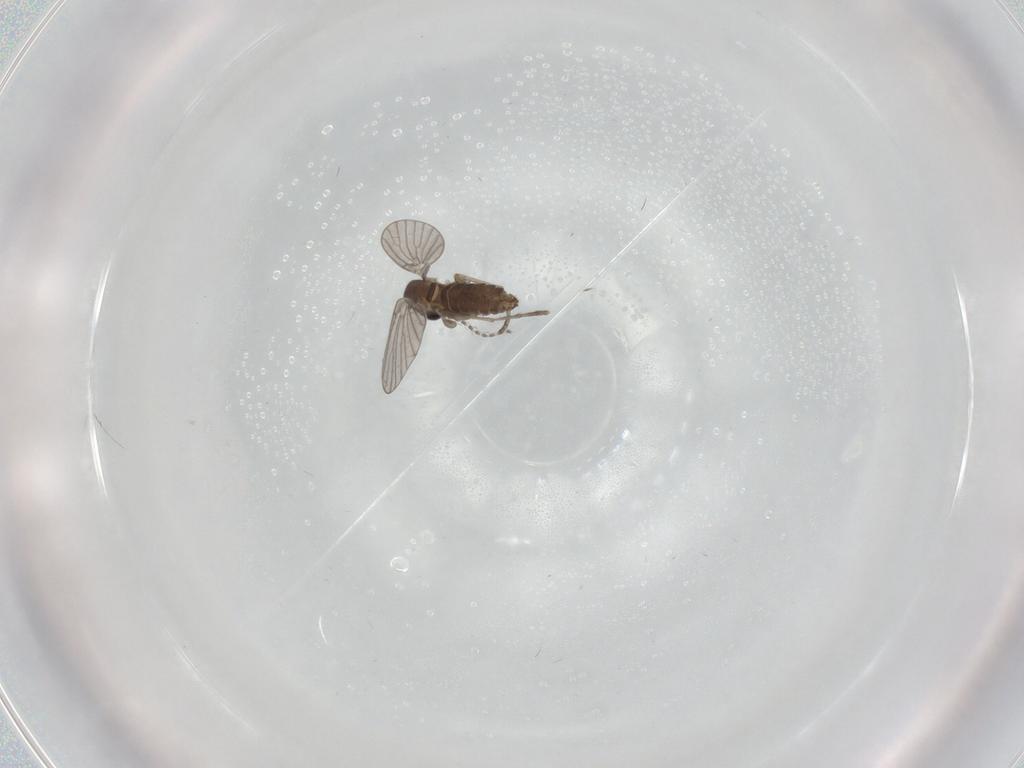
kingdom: Animalia
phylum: Arthropoda
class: Insecta
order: Diptera
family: Cecidomyiidae
